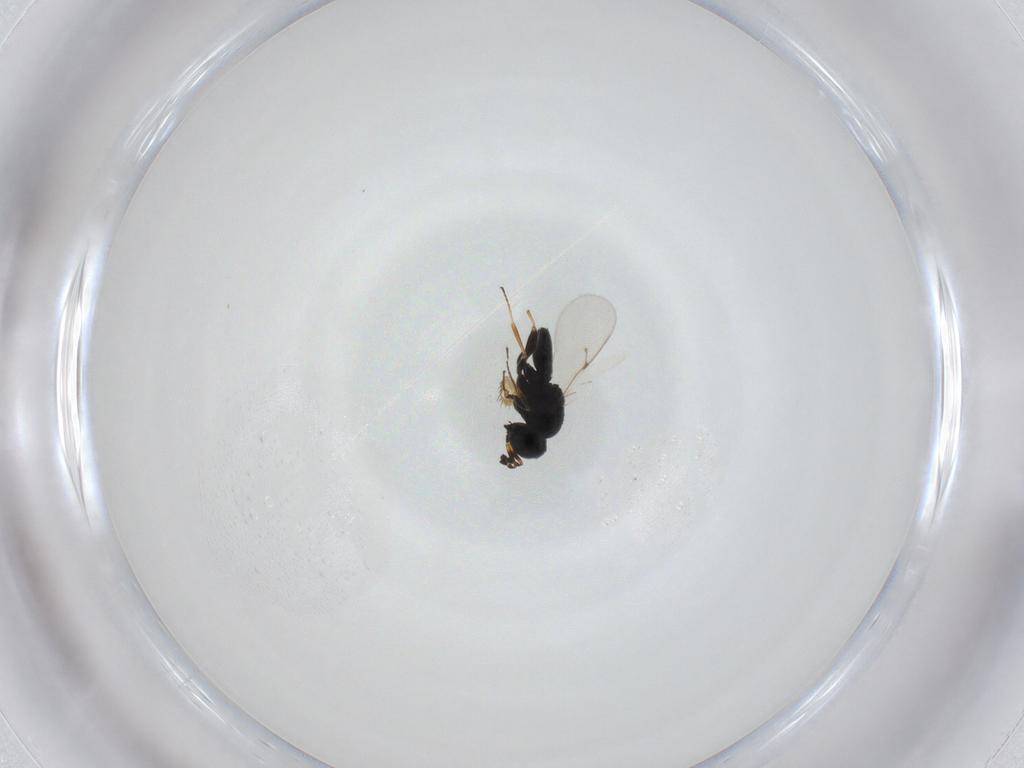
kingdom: Animalia
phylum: Arthropoda
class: Insecta
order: Hymenoptera
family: Scelionidae
